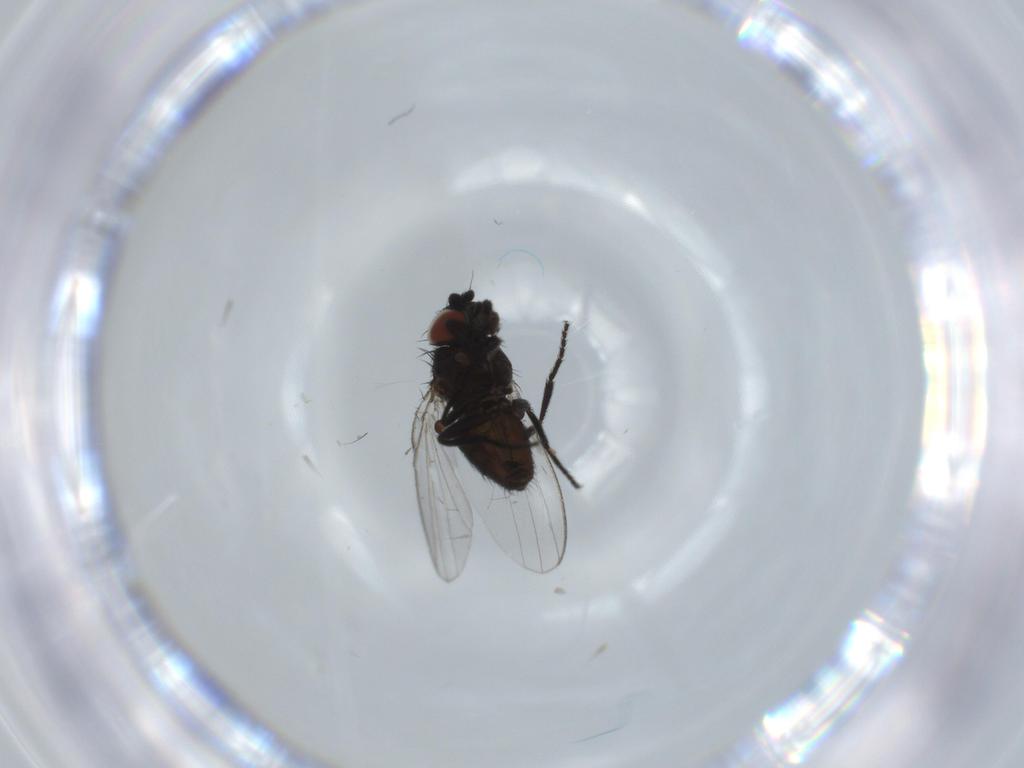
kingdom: Animalia
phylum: Arthropoda
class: Insecta
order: Diptera
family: Milichiidae
